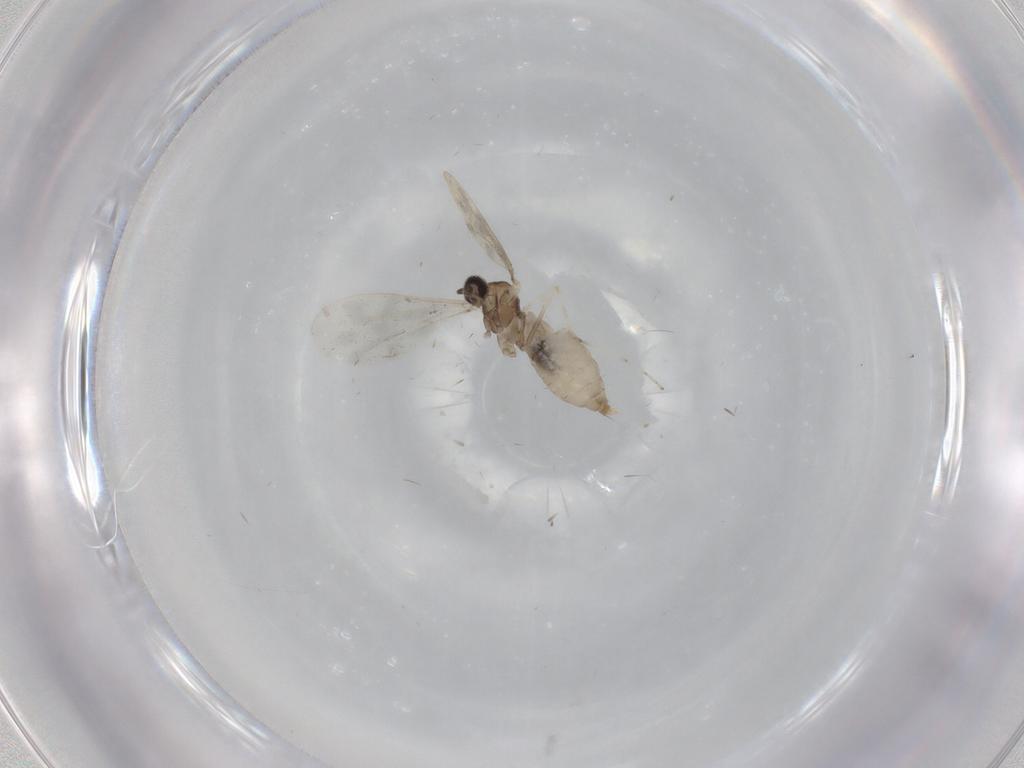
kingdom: Animalia
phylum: Arthropoda
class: Insecta
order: Diptera
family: Cecidomyiidae
